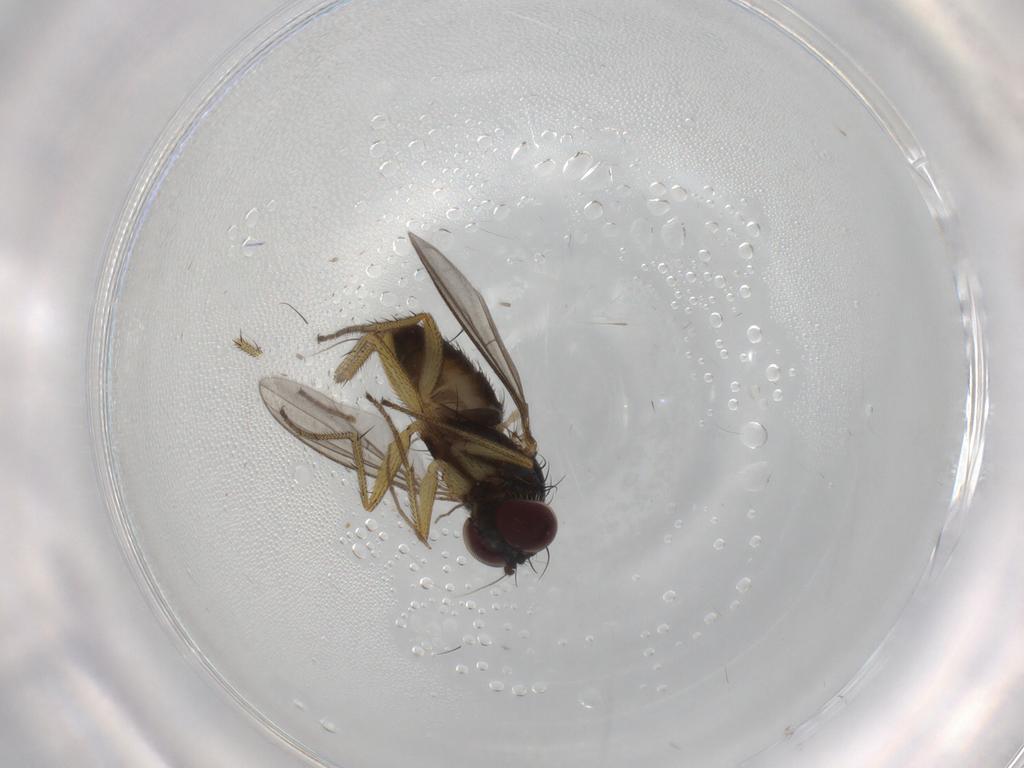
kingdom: Animalia
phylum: Arthropoda
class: Insecta
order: Diptera
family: Chironomidae
